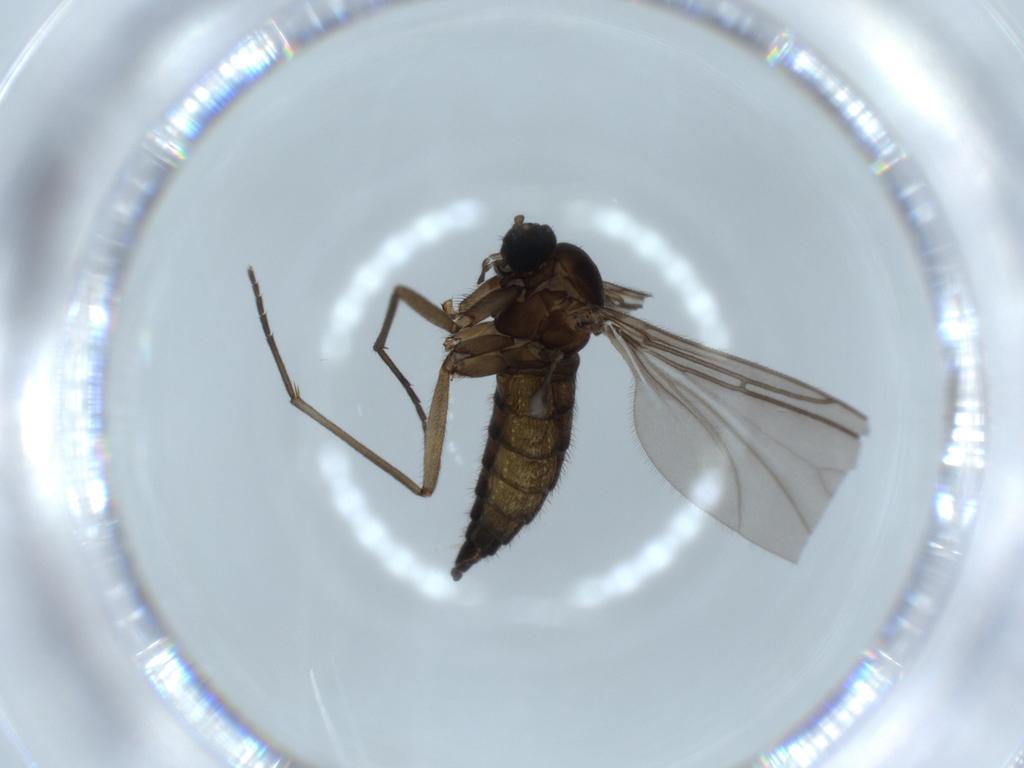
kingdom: Animalia
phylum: Arthropoda
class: Insecta
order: Diptera
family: Sciaridae
